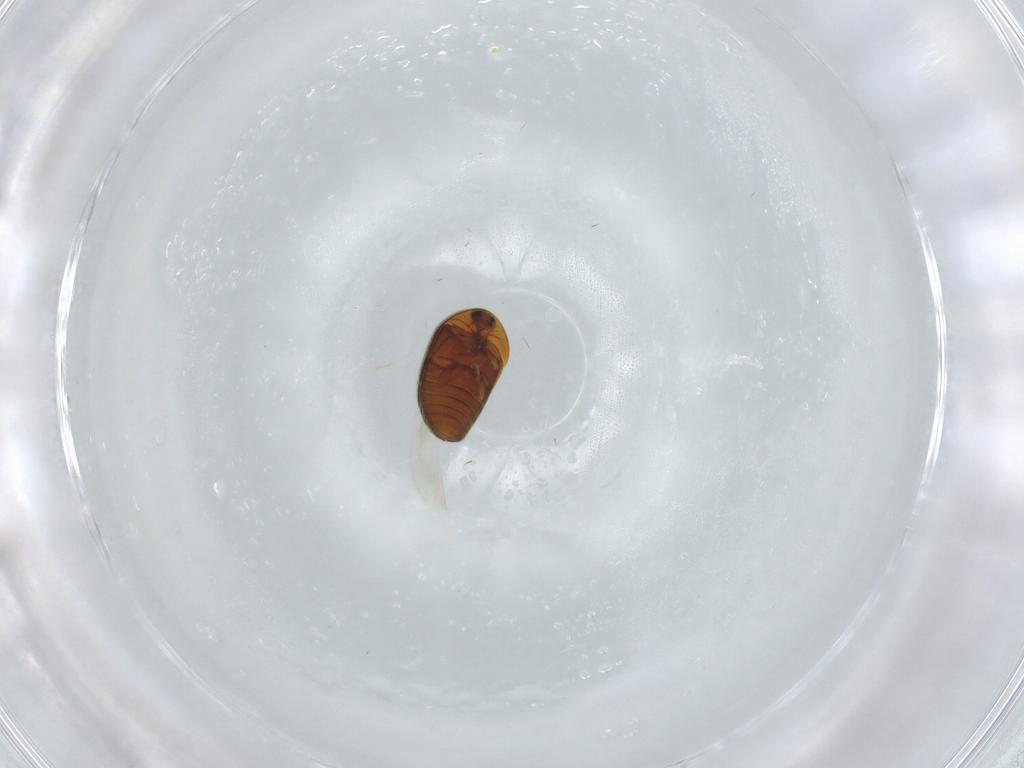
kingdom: Animalia
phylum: Arthropoda
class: Insecta
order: Coleoptera
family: Corylophidae
